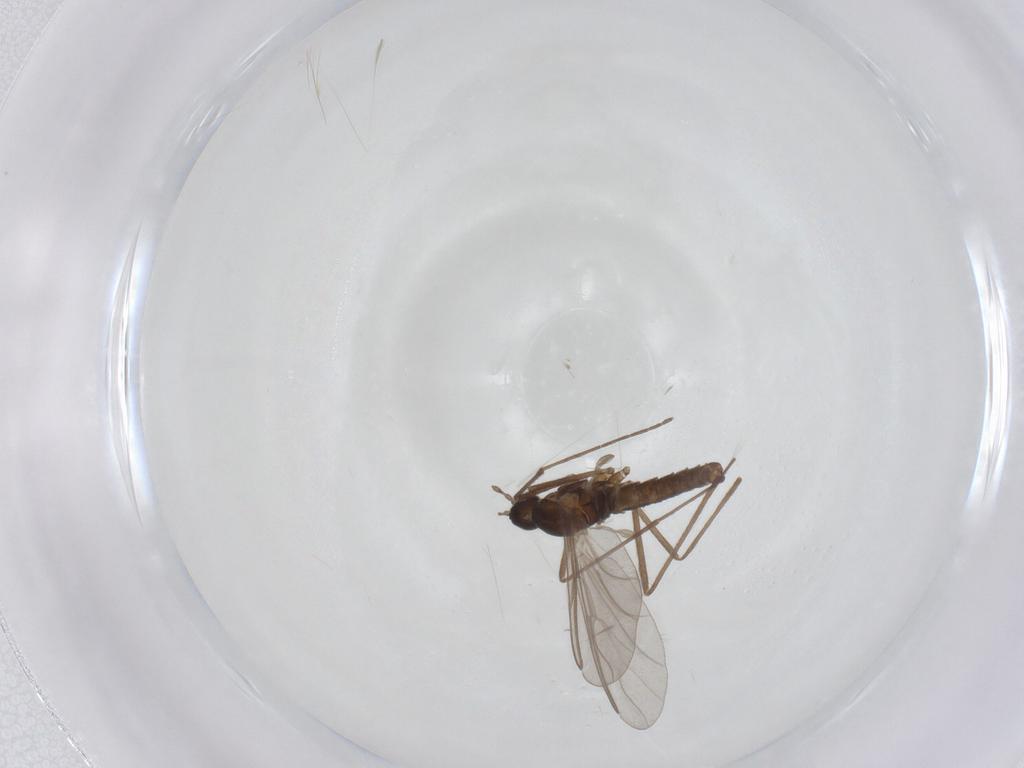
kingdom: Animalia
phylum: Arthropoda
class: Insecta
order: Diptera
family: Cecidomyiidae
